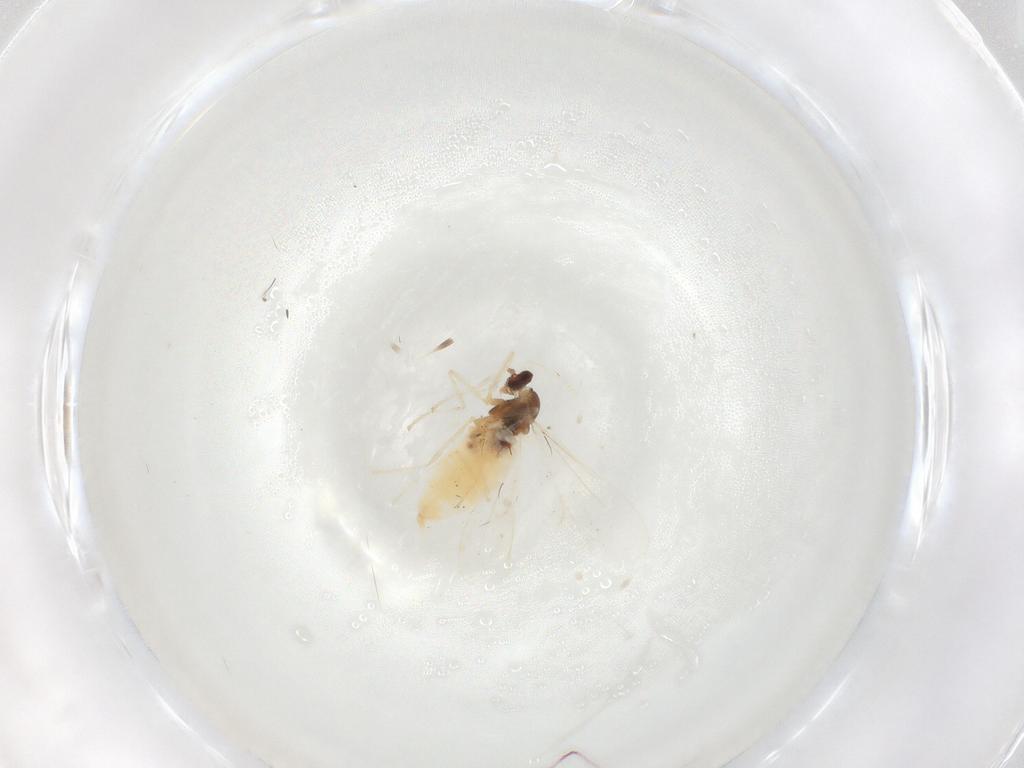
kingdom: Animalia
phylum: Arthropoda
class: Insecta
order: Diptera
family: Cecidomyiidae
